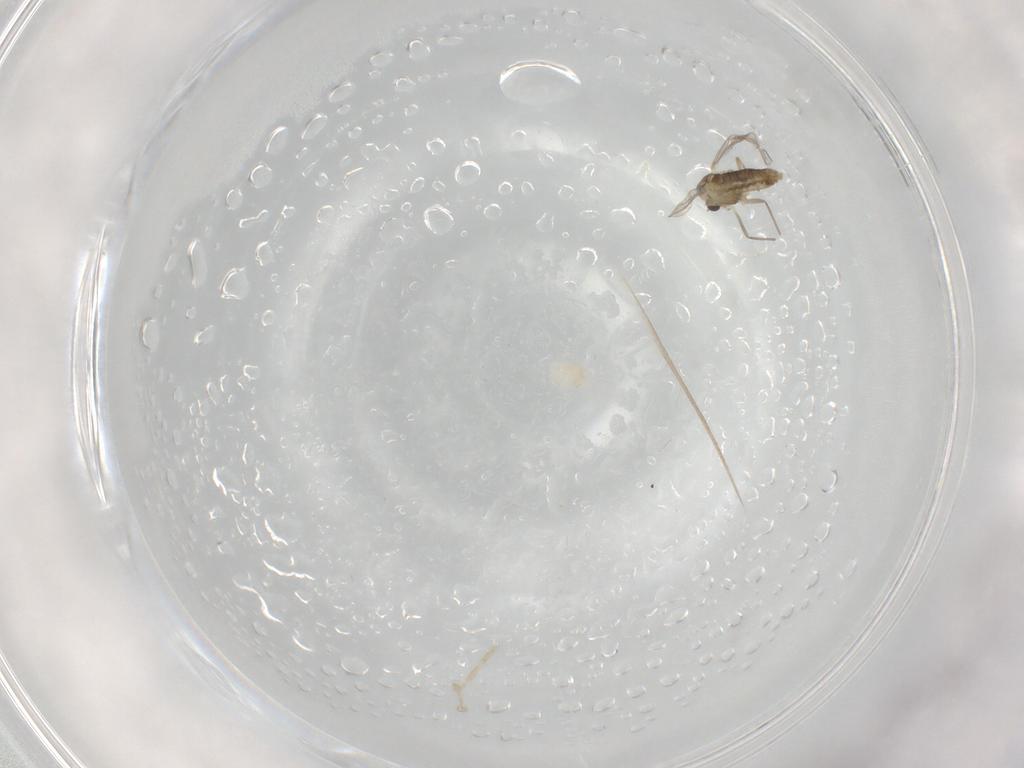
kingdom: Animalia
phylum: Arthropoda
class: Insecta
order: Diptera
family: Chironomidae
